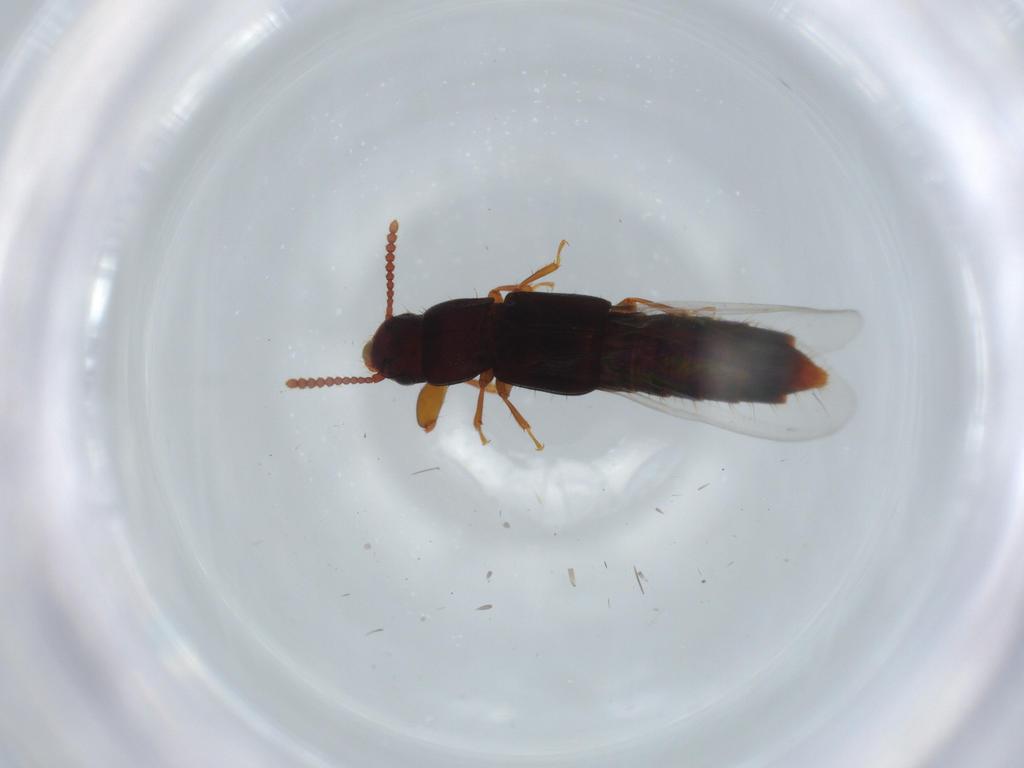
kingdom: Animalia
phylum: Arthropoda
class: Insecta
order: Coleoptera
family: Staphylinidae
